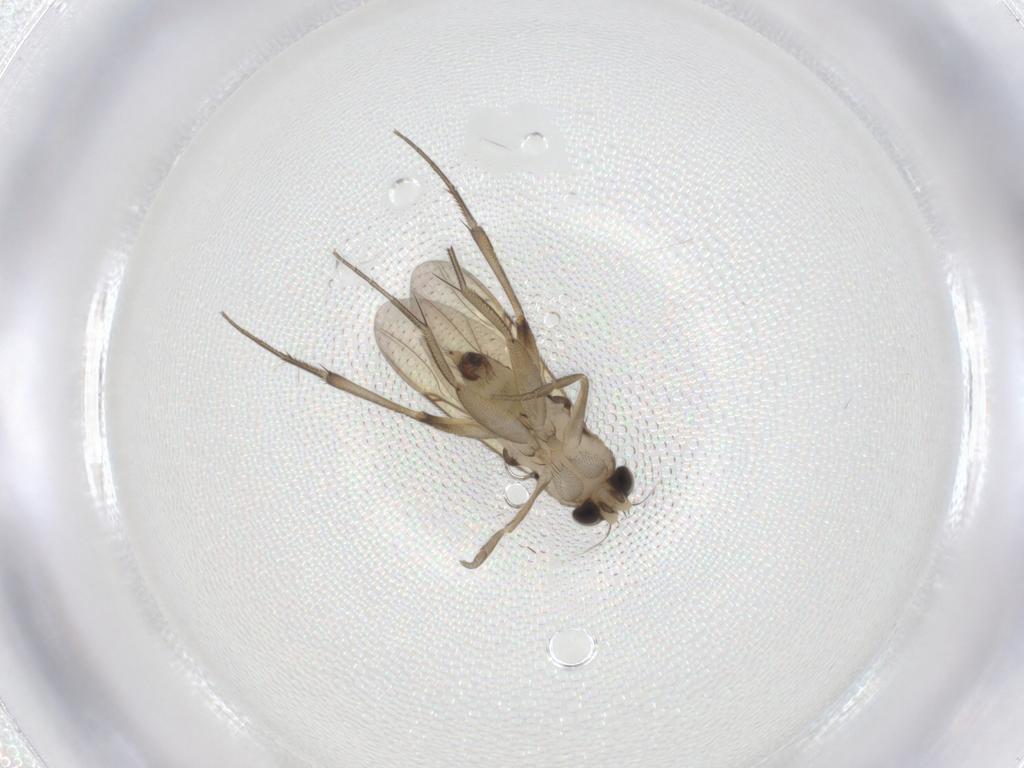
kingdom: Animalia
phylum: Arthropoda
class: Insecta
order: Diptera
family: Phoridae
